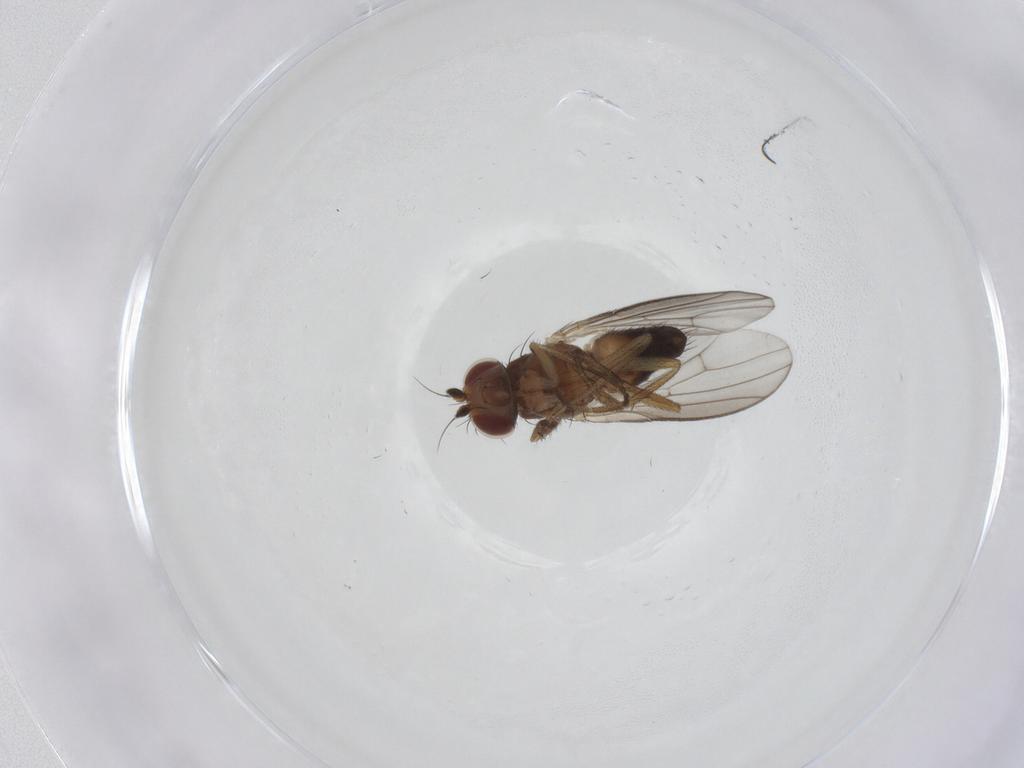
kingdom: Animalia
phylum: Arthropoda
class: Insecta
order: Diptera
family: Heleomyzidae
